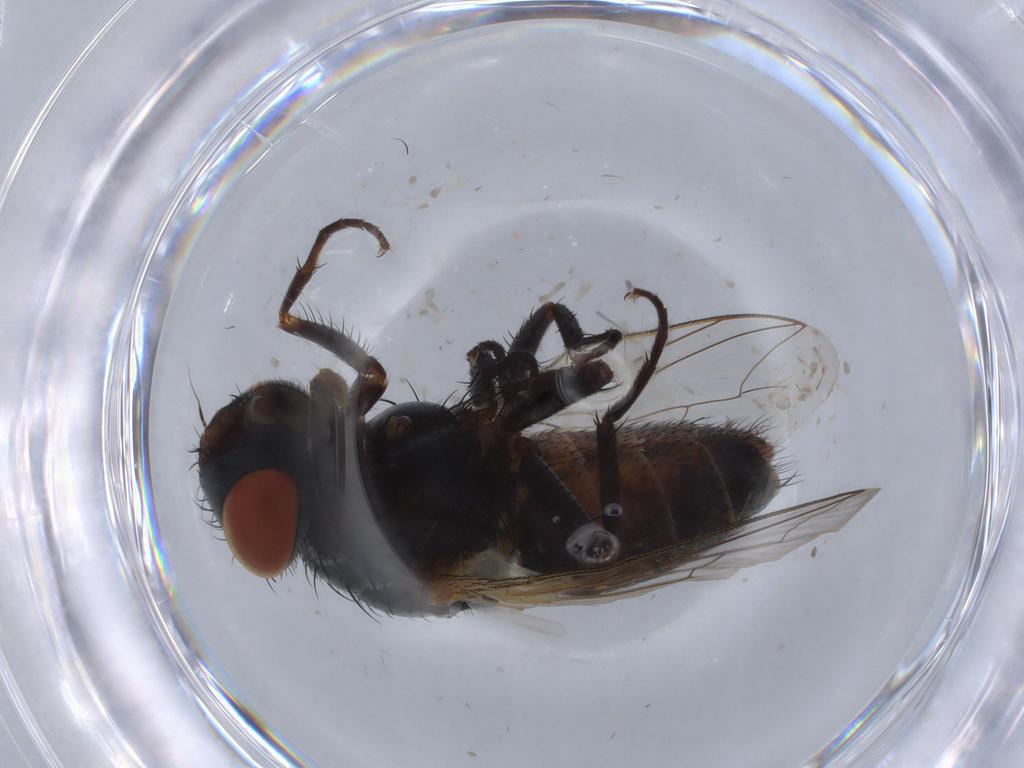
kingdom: Animalia
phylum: Arthropoda
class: Insecta
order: Diptera
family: Sarcophagidae
